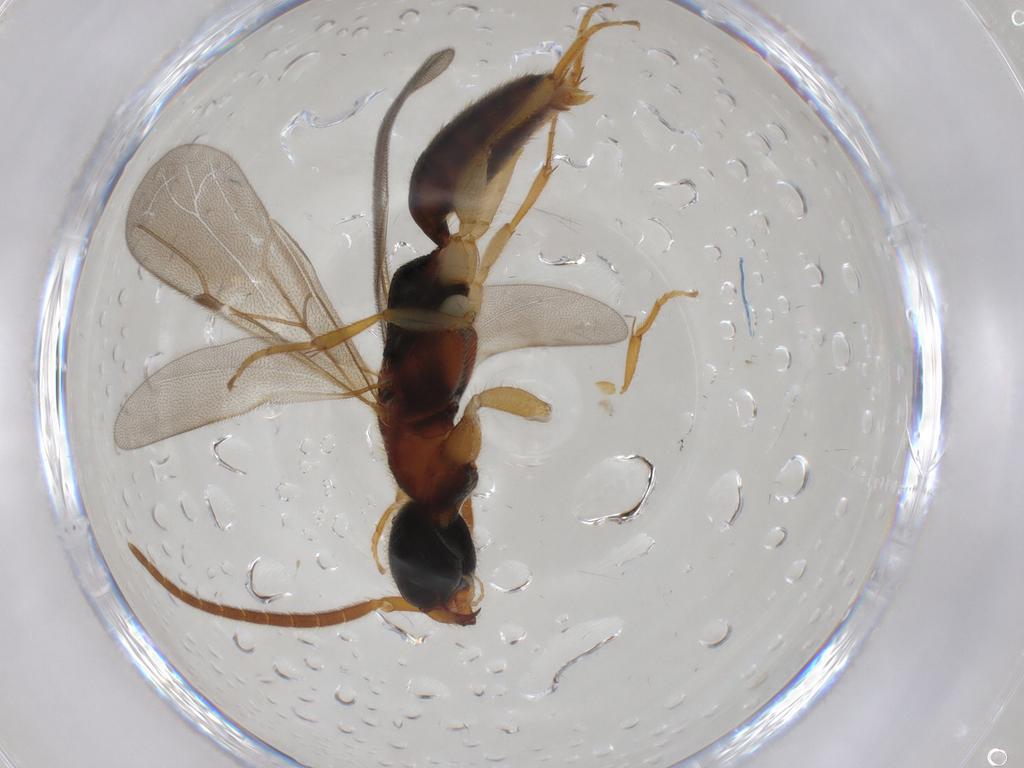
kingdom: Animalia
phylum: Arthropoda
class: Insecta
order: Hymenoptera
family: Bethylidae
